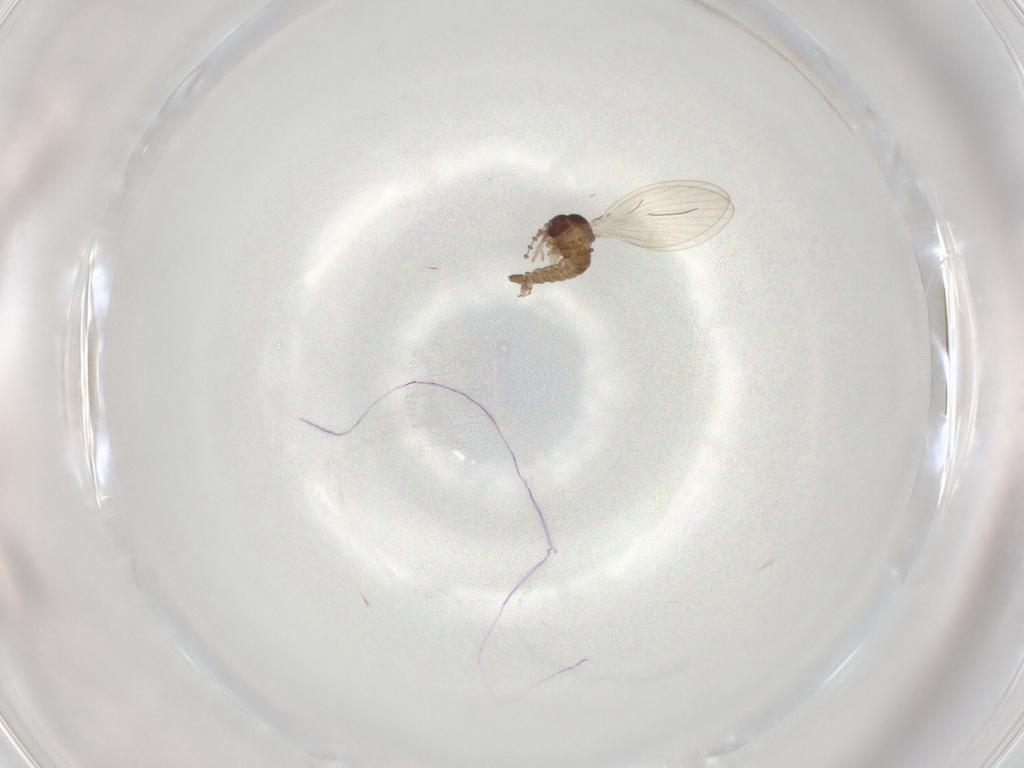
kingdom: Animalia
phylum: Arthropoda
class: Insecta
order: Diptera
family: Psychodidae
